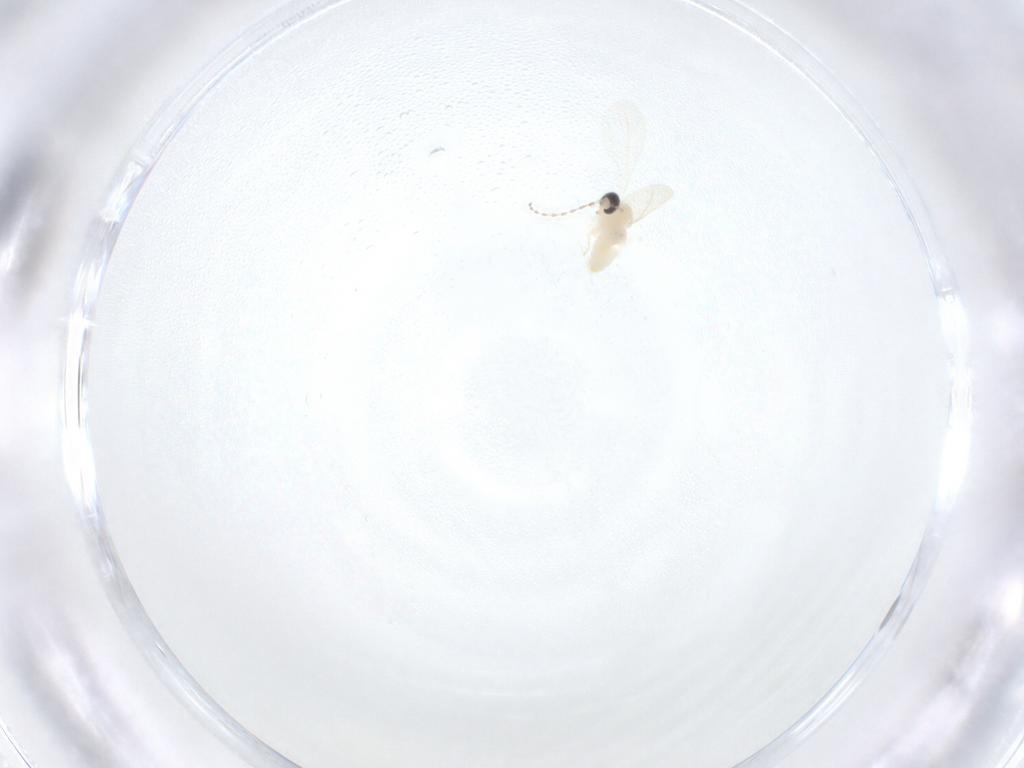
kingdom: Animalia
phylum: Arthropoda
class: Insecta
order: Diptera
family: Cecidomyiidae
